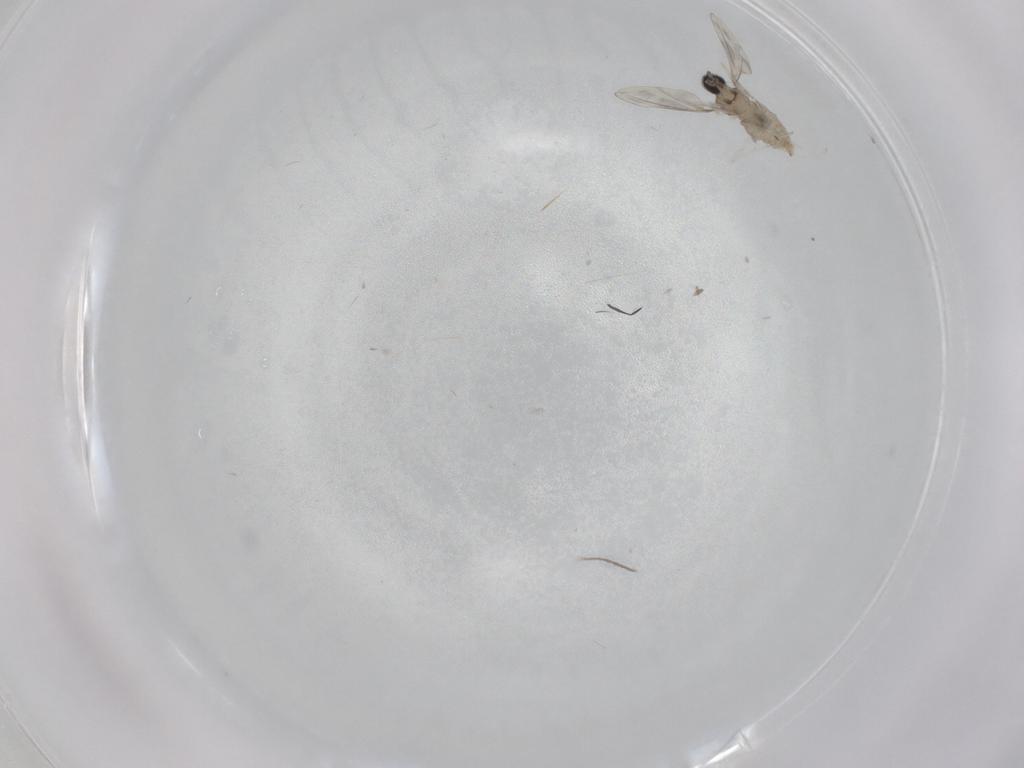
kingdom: Animalia
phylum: Arthropoda
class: Insecta
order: Diptera
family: Cecidomyiidae
